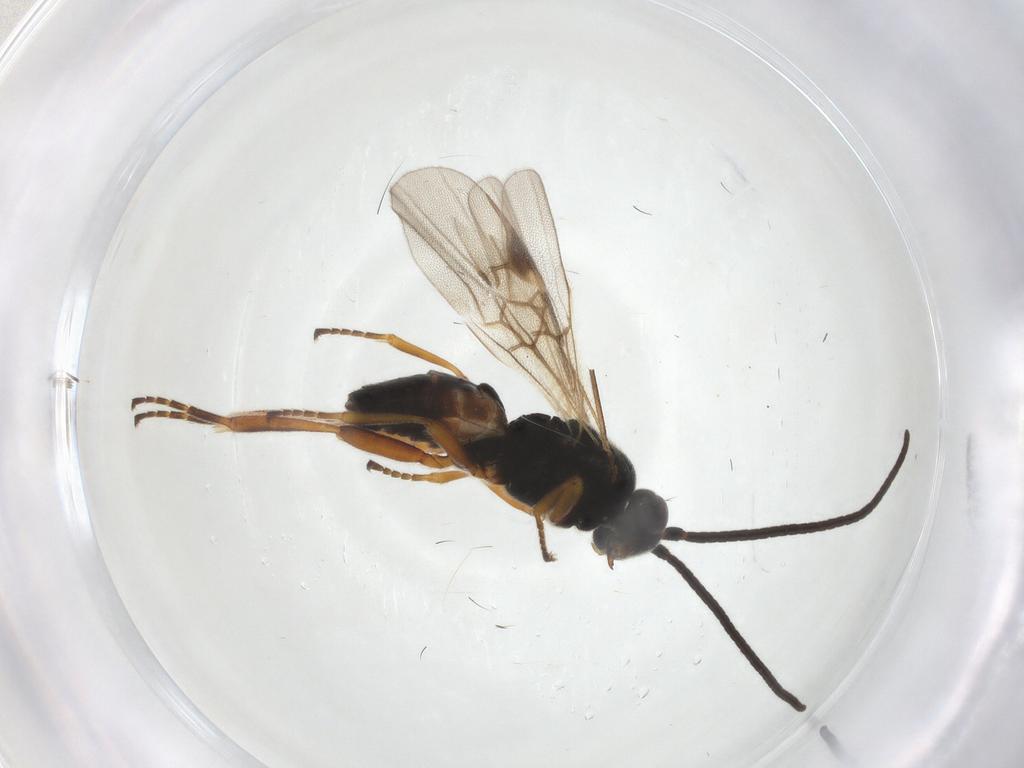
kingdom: Animalia
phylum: Arthropoda
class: Insecta
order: Hymenoptera
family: Braconidae
